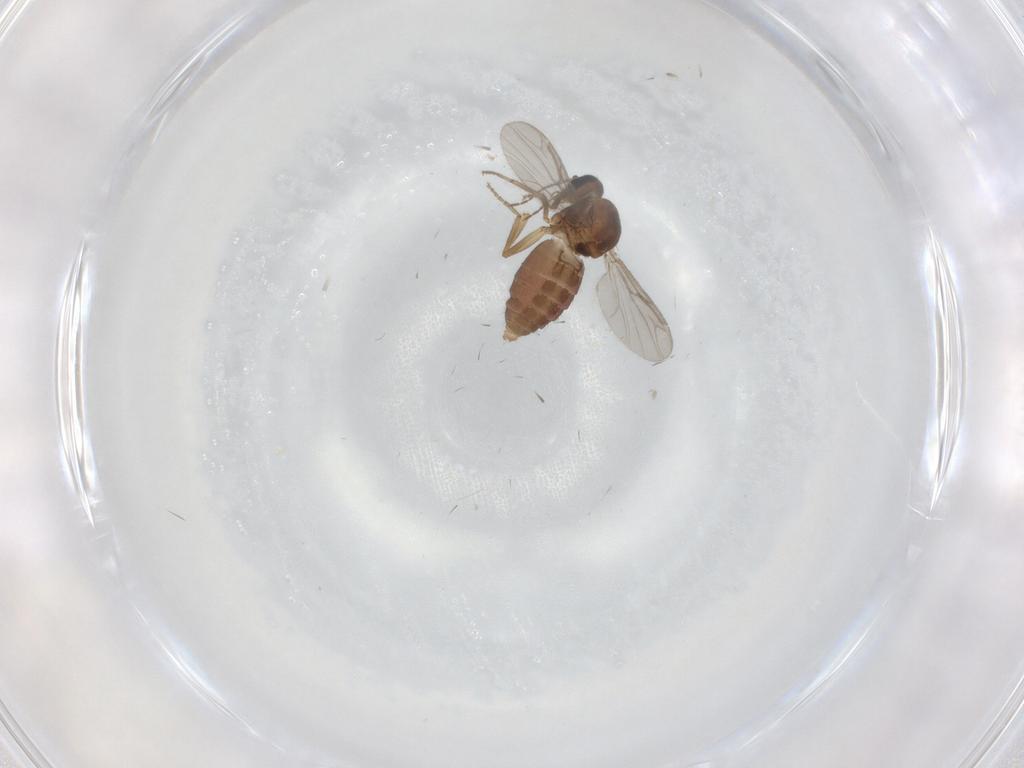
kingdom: Animalia
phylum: Arthropoda
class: Insecta
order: Diptera
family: Ceratopogonidae
